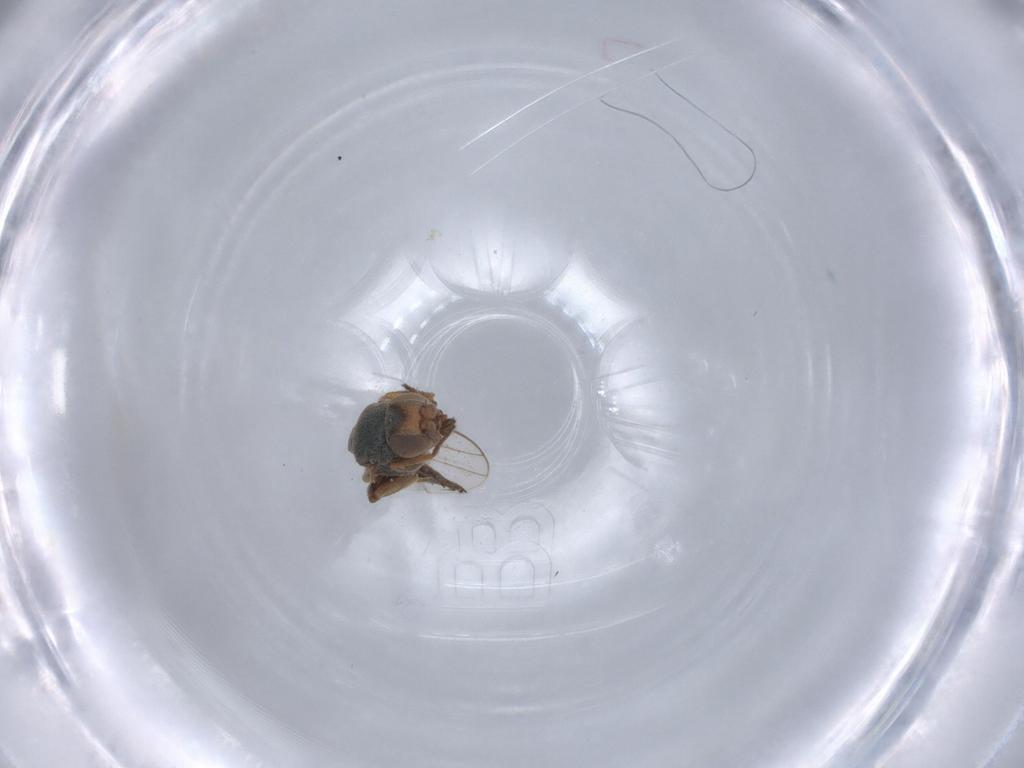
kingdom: Animalia
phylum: Arthropoda
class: Insecta
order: Diptera
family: Chloropidae
